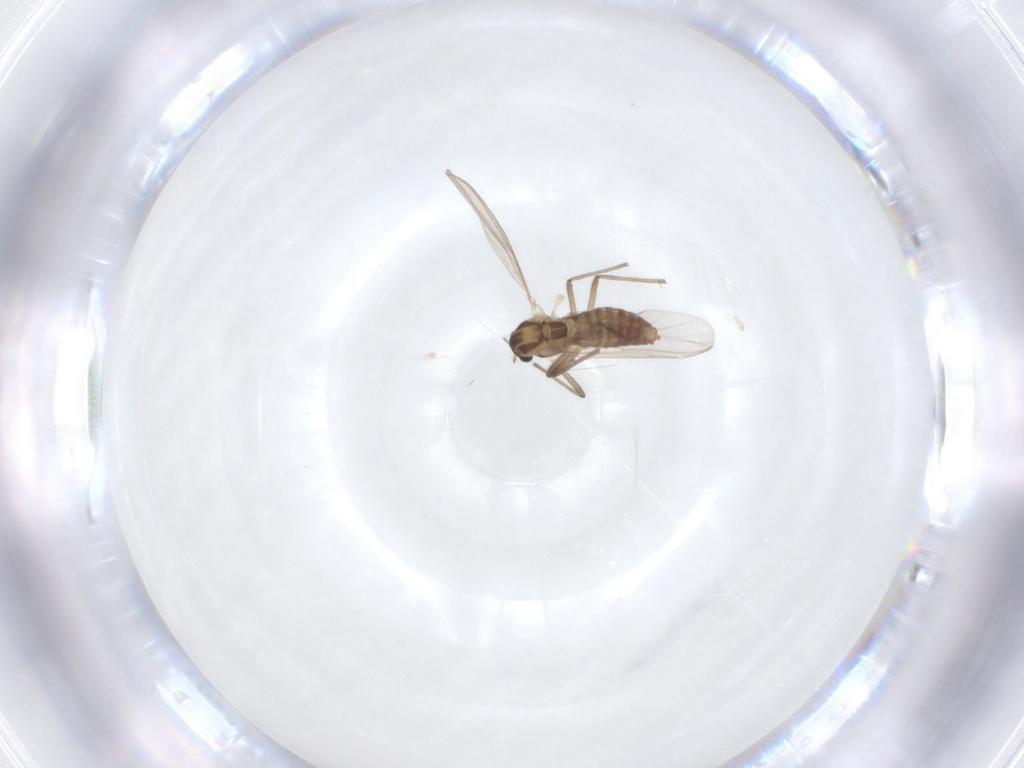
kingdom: Animalia
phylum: Arthropoda
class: Insecta
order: Diptera
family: Chironomidae
